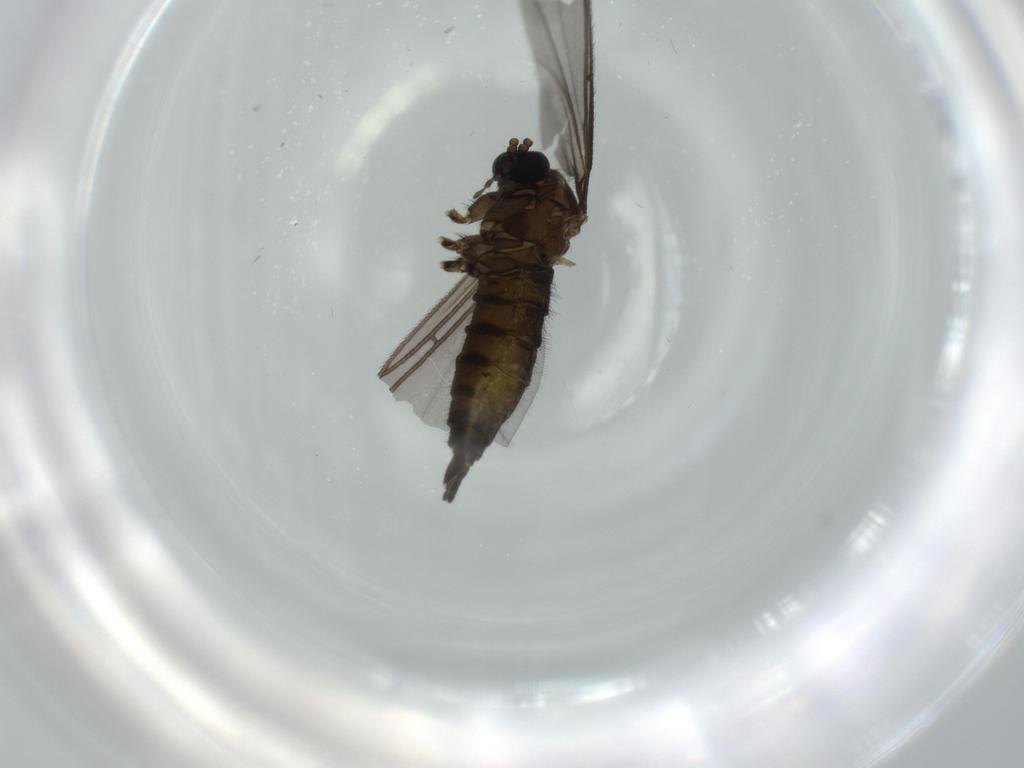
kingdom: Animalia
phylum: Arthropoda
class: Insecta
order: Diptera
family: Sciaridae
